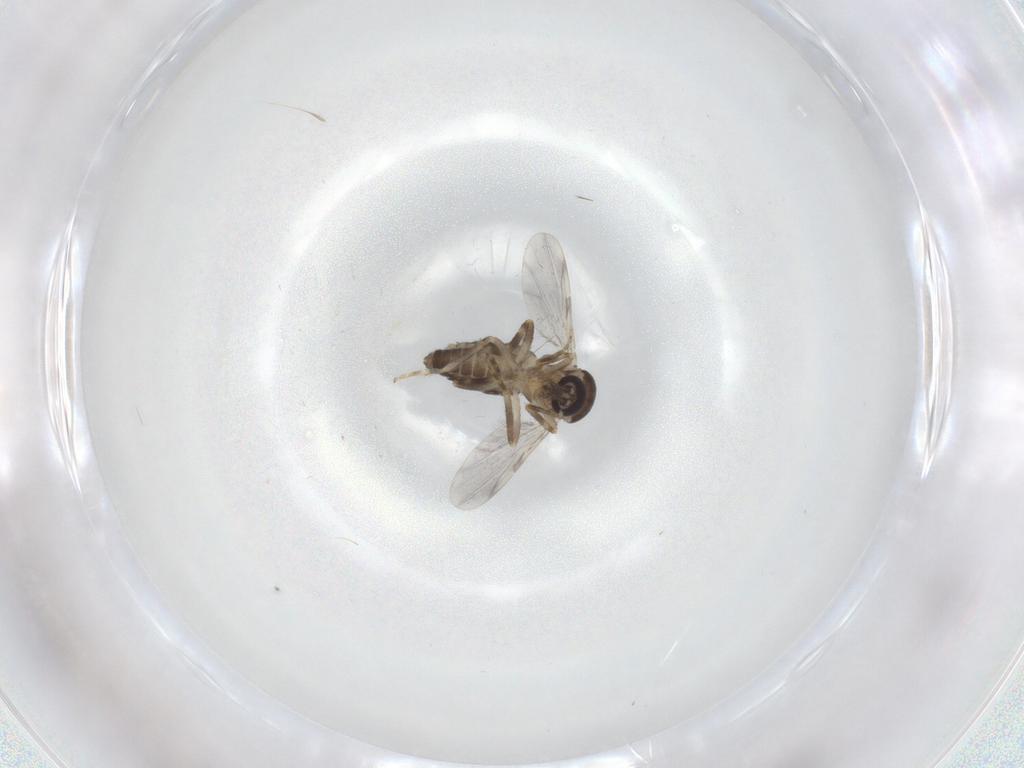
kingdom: Animalia
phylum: Arthropoda
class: Insecta
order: Diptera
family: Ceratopogonidae
